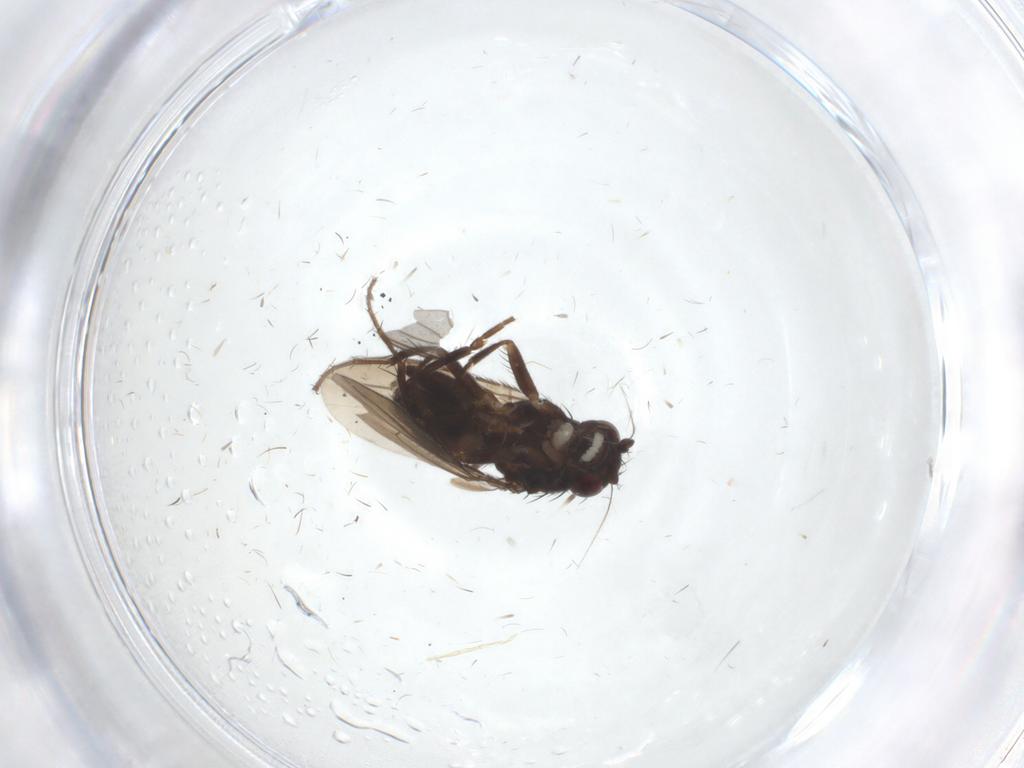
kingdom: Animalia
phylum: Arthropoda
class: Insecta
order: Diptera
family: Sphaeroceridae
